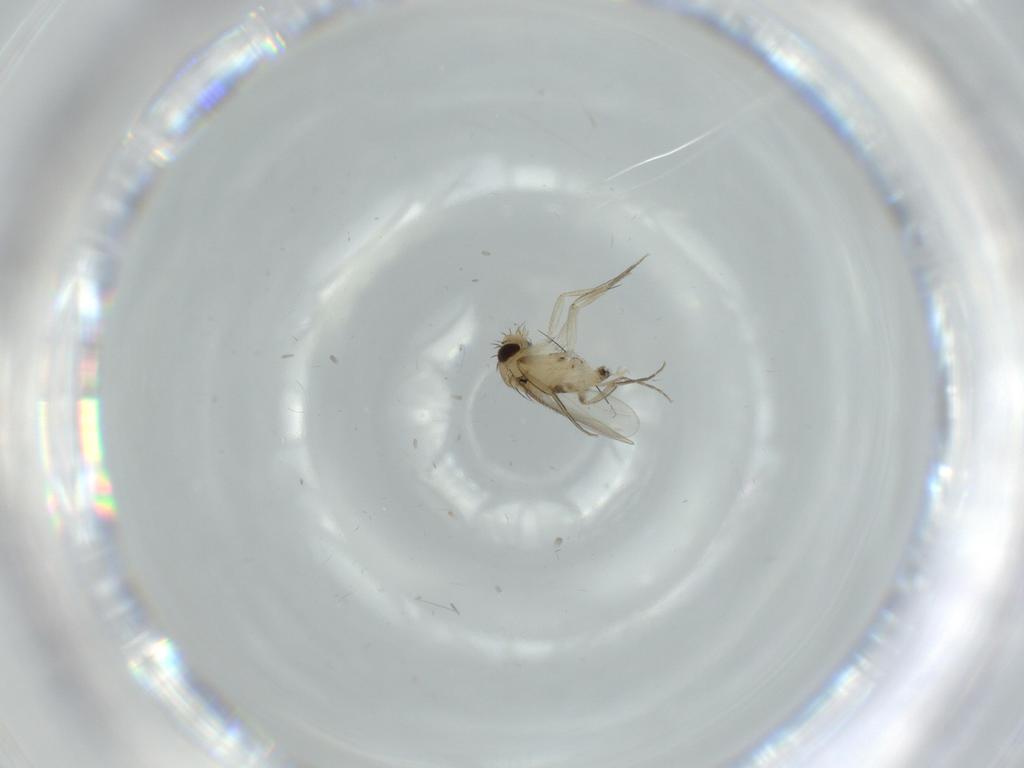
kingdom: Animalia
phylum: Arthropoda
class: Insecta
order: Diptera
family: Phoridae
